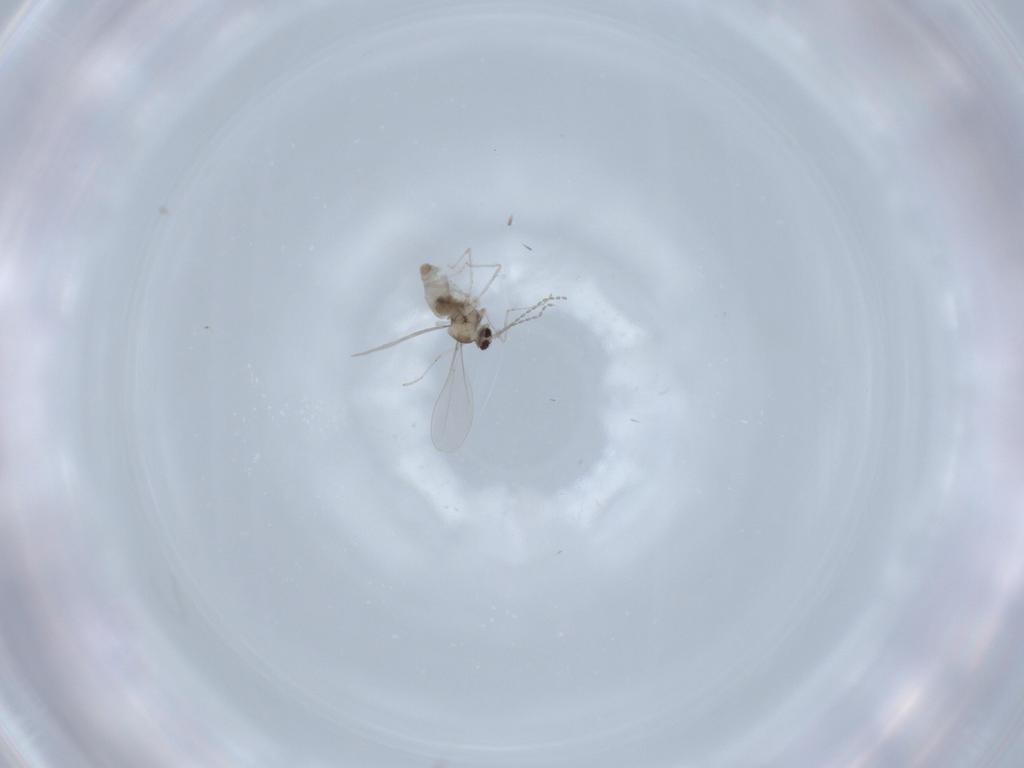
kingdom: Animalia
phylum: Arthropoda
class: Insecta
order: Diptera
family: Cecidomyiidae
